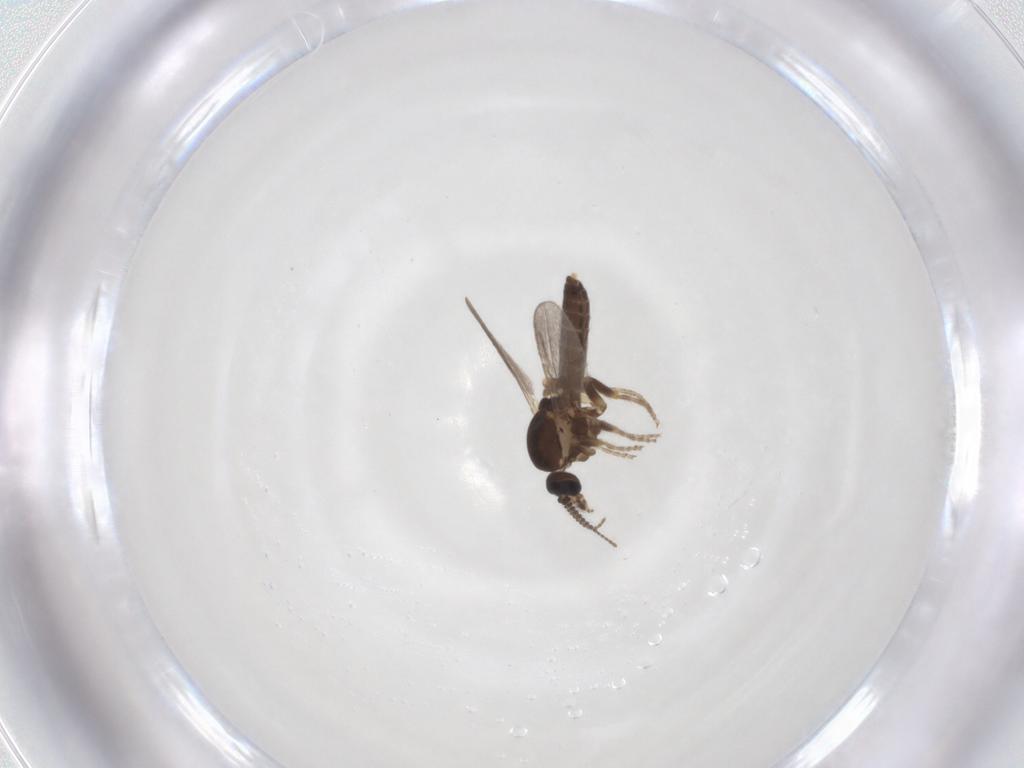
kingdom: Animalia
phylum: Arthropoda
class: Insecta
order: Diptera
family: Ceratopogonidae
